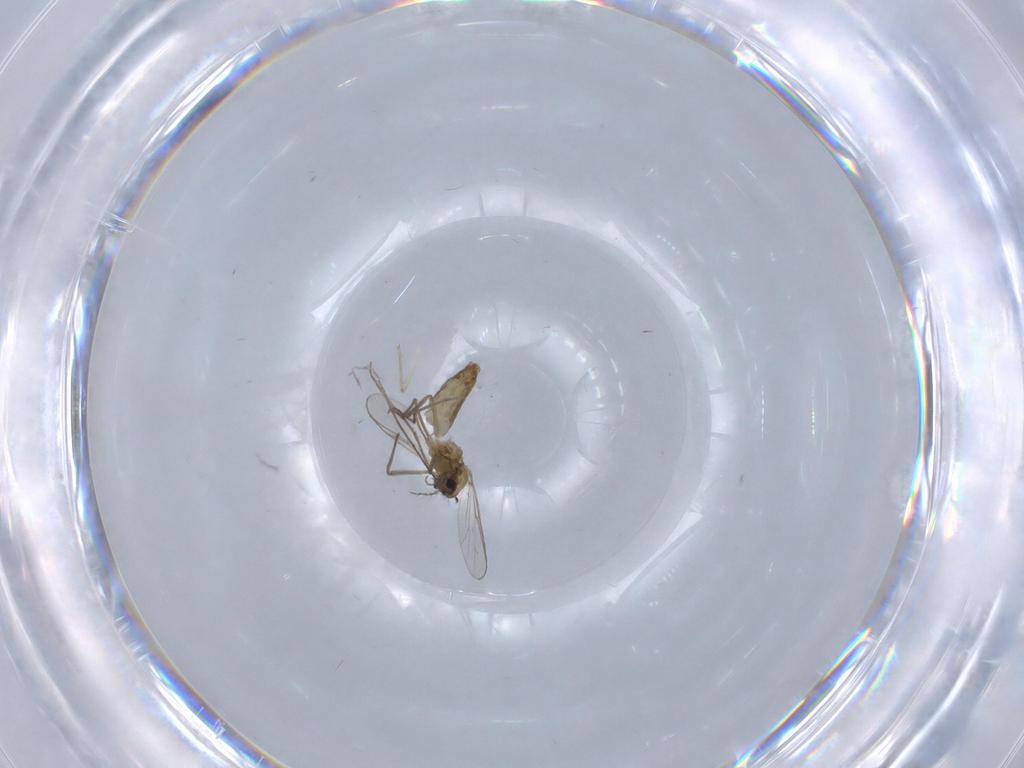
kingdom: Animalia
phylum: Arthropoda
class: Insecta
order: Diptera
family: Chironomidae
